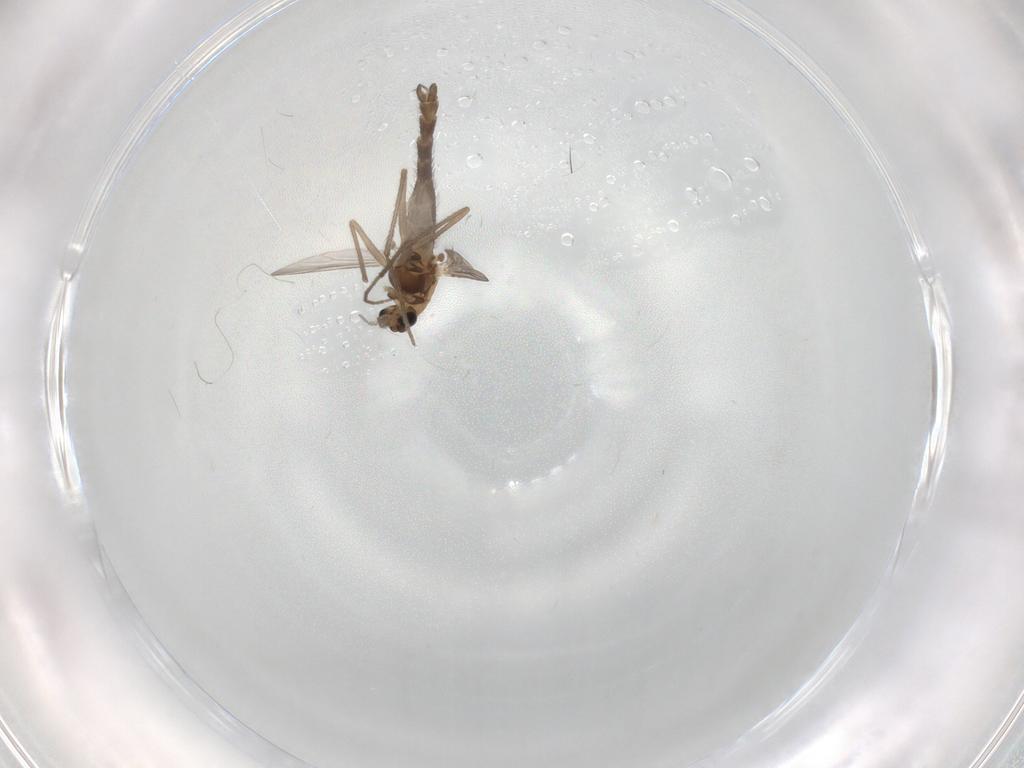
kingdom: Animalia
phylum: Arthropoda
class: Insecta
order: Diptera
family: Chironomidae
